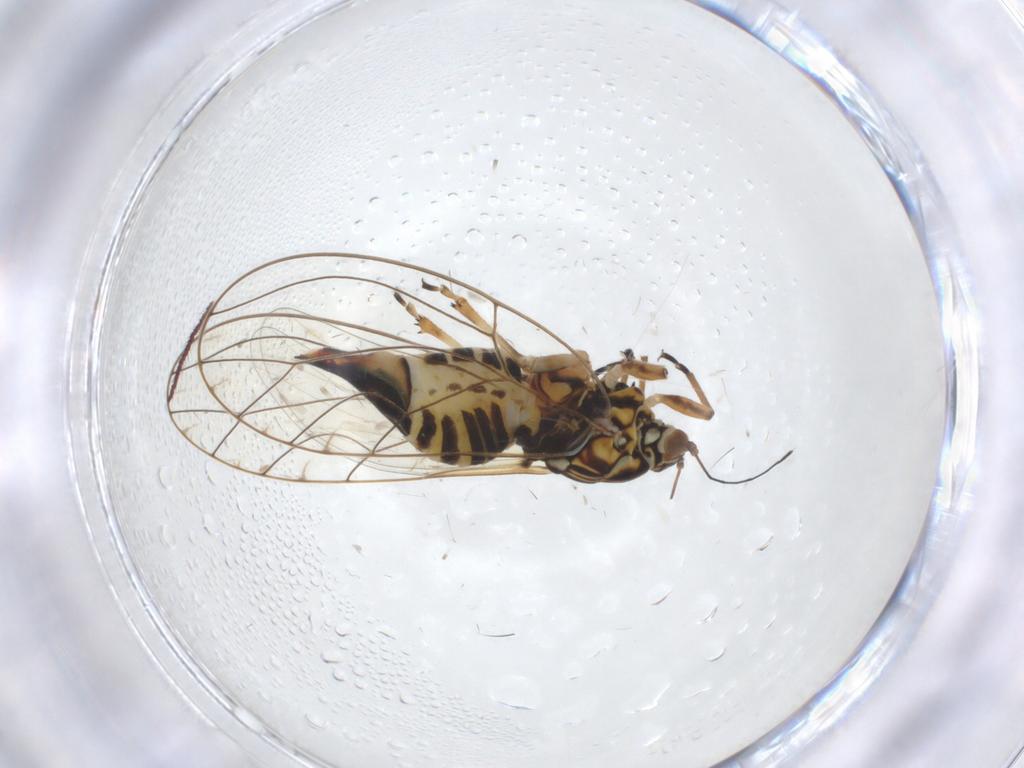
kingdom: Animalia
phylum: Arthropoda
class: Insecta
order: Hemiptera
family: Triozidae
